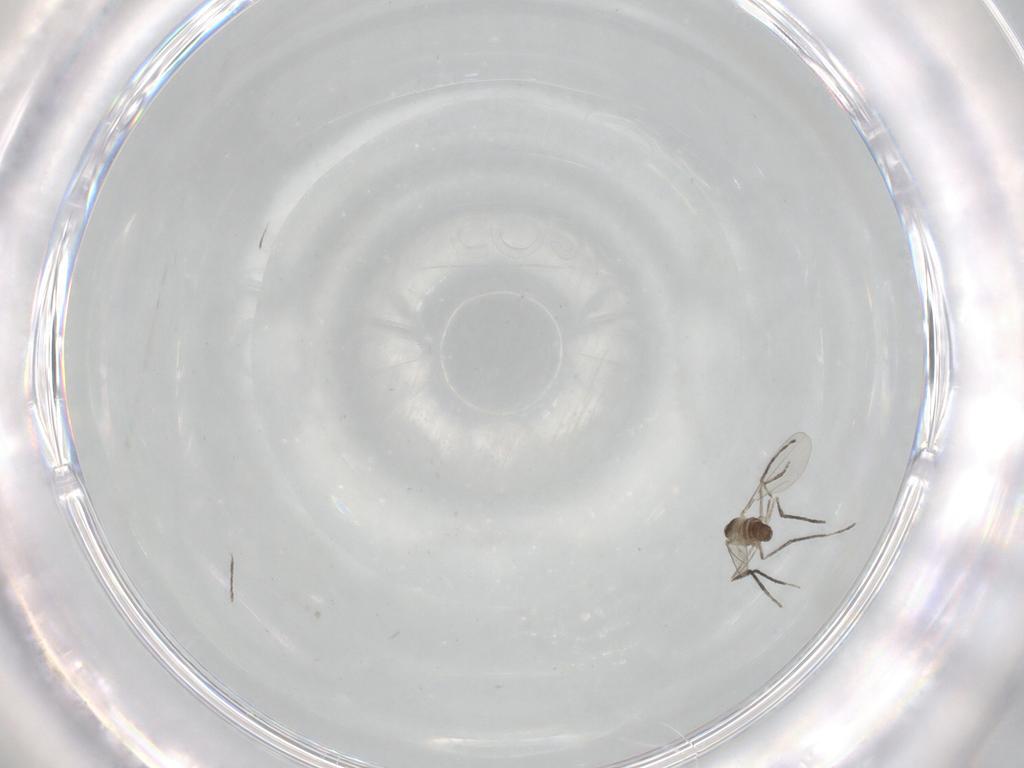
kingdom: Animalia
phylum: Arthropoda
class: Insecta
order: Diptera
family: Cecidomyiidae
